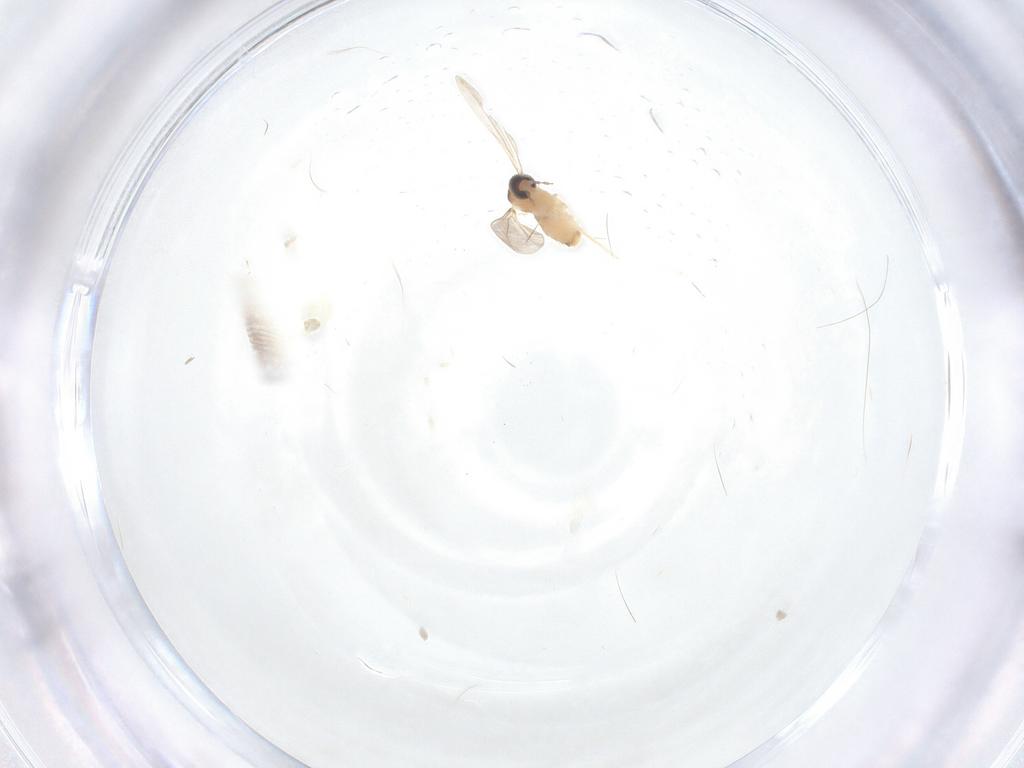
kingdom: Animalia
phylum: Arthropoda
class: Insecta
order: Diptera
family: Cecidomyiidae
